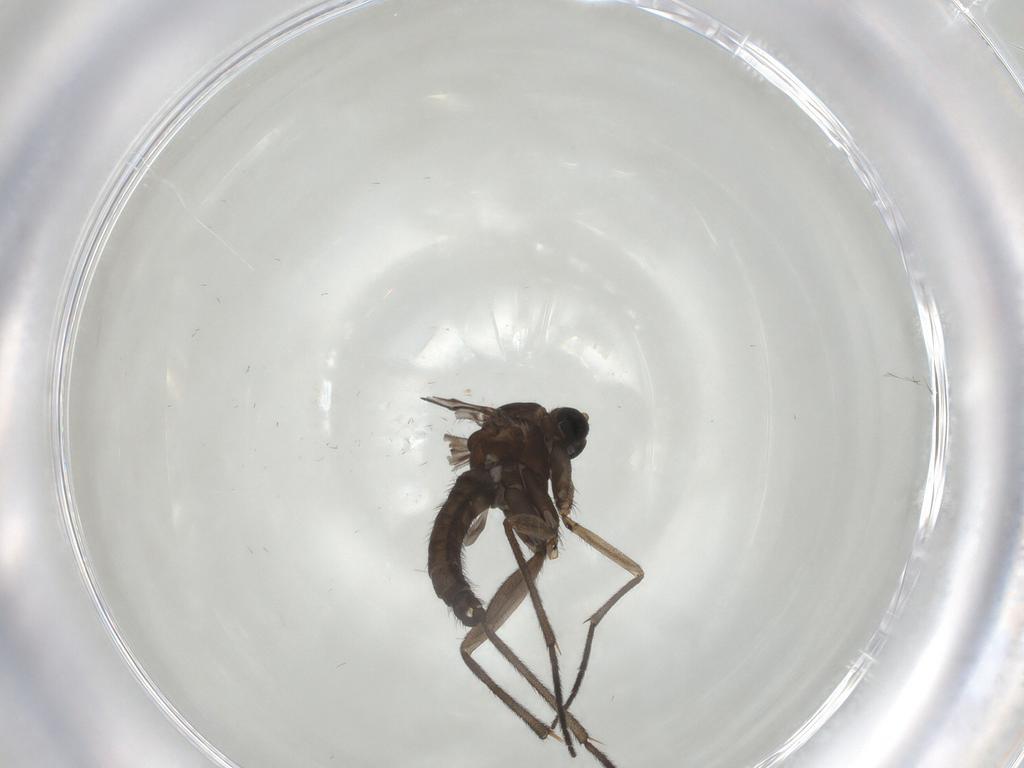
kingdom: Animalia
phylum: Arthropoda
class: Insecta
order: Diptera
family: Sciaridae
